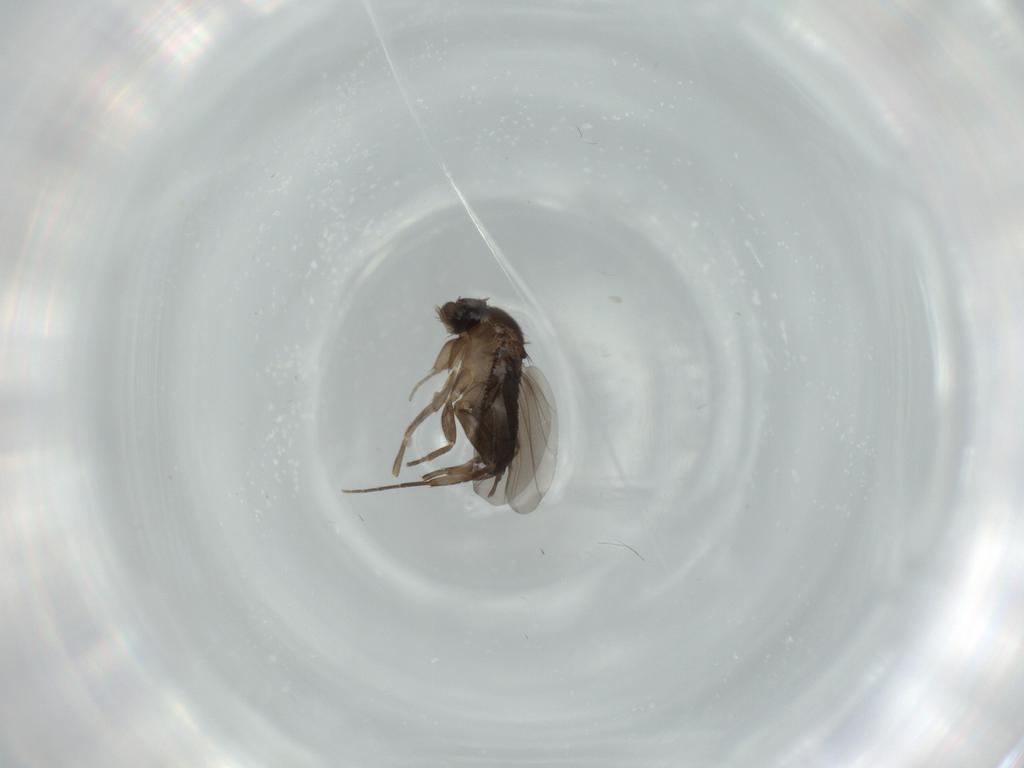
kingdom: Animalia
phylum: Arthropoda
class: Insecta
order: Diptera
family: Phoridae
